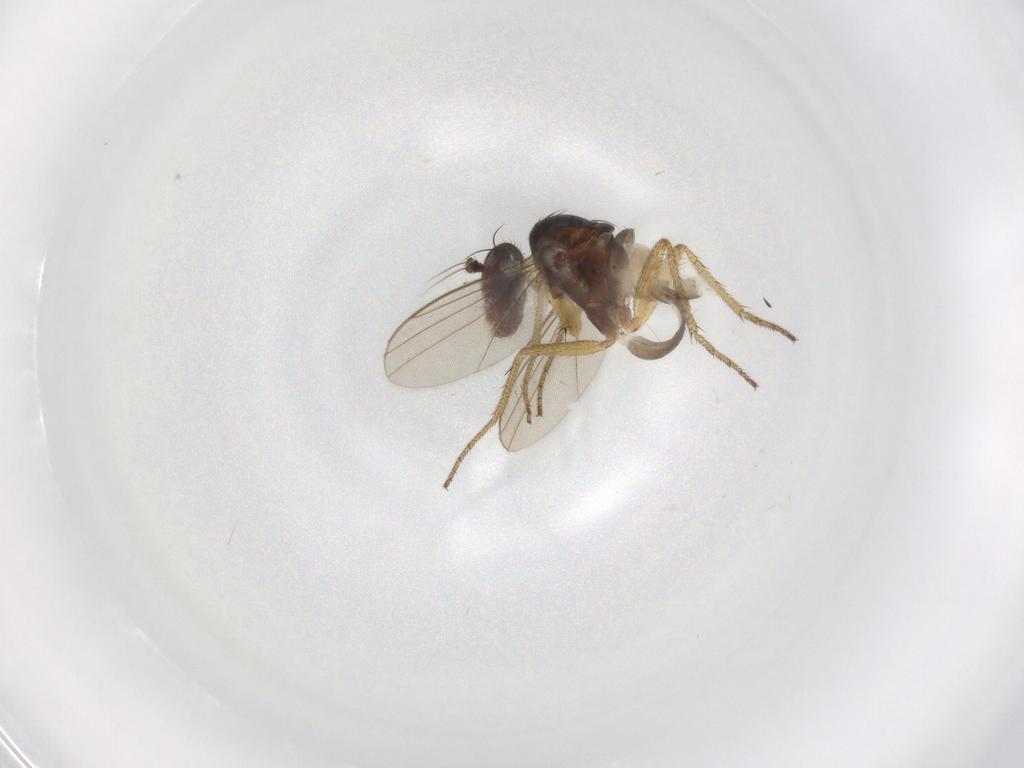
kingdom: Animalia
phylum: Arthropoda
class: Insecta
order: Diptera
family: Micropezidae
